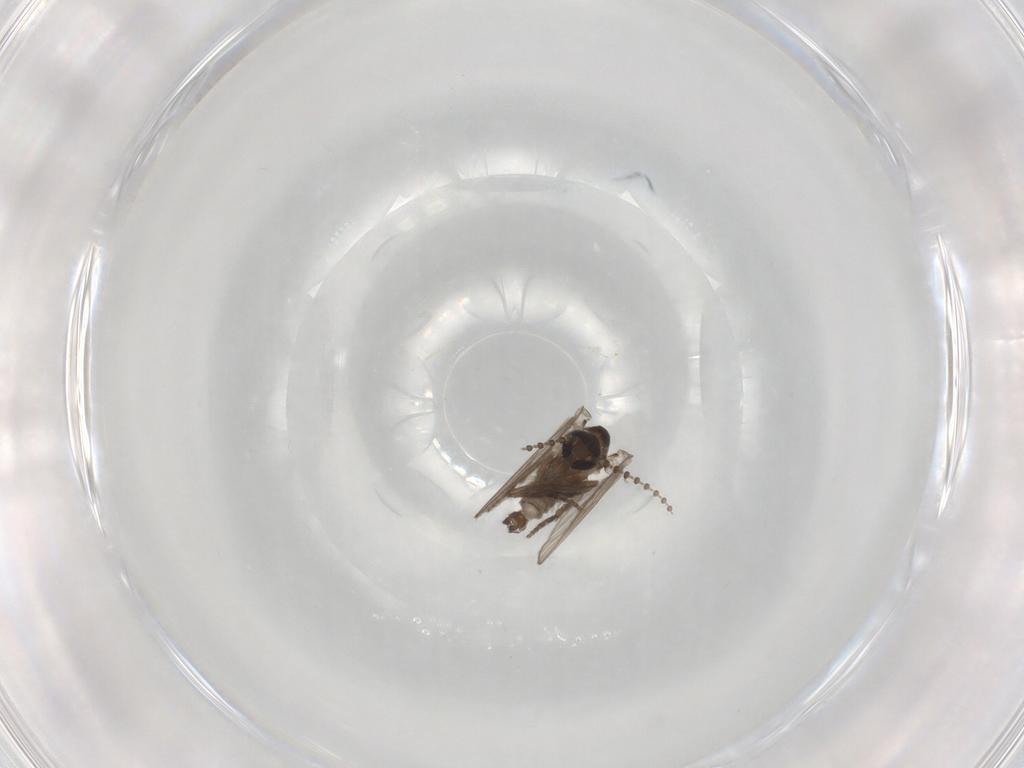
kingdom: Animalia
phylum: Arthropoda
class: Insecta
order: Diptera
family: Psychodidae
